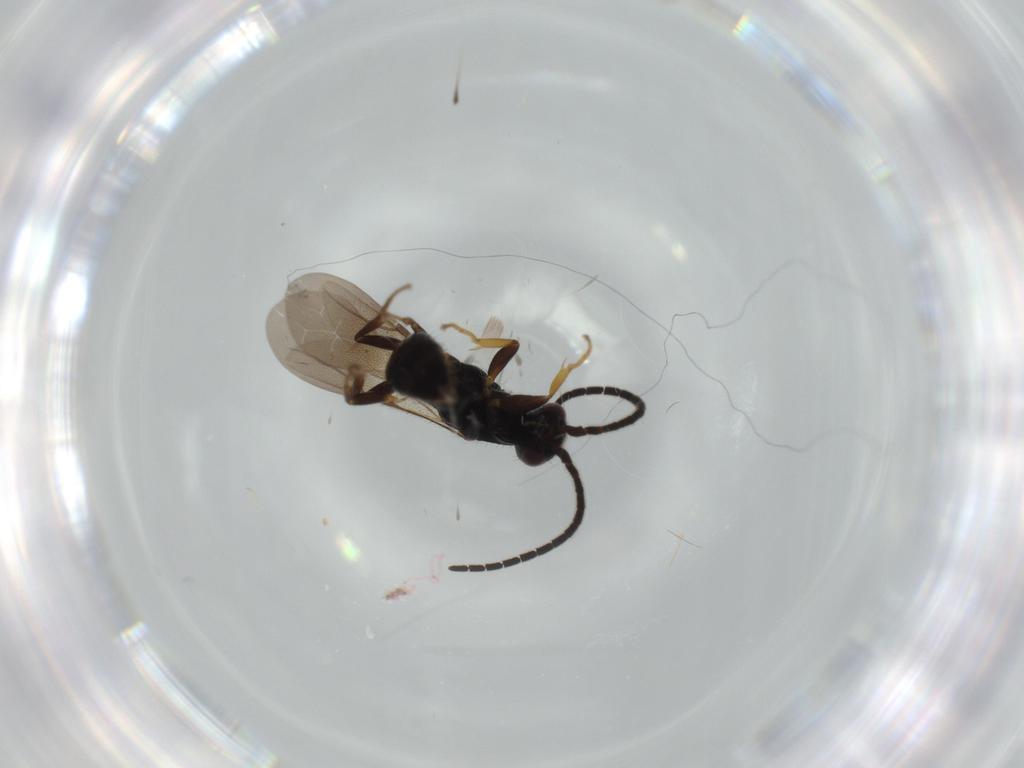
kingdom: Animalia
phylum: Arthropoda
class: Insecta
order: Hymenoptera
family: Bethylidae
